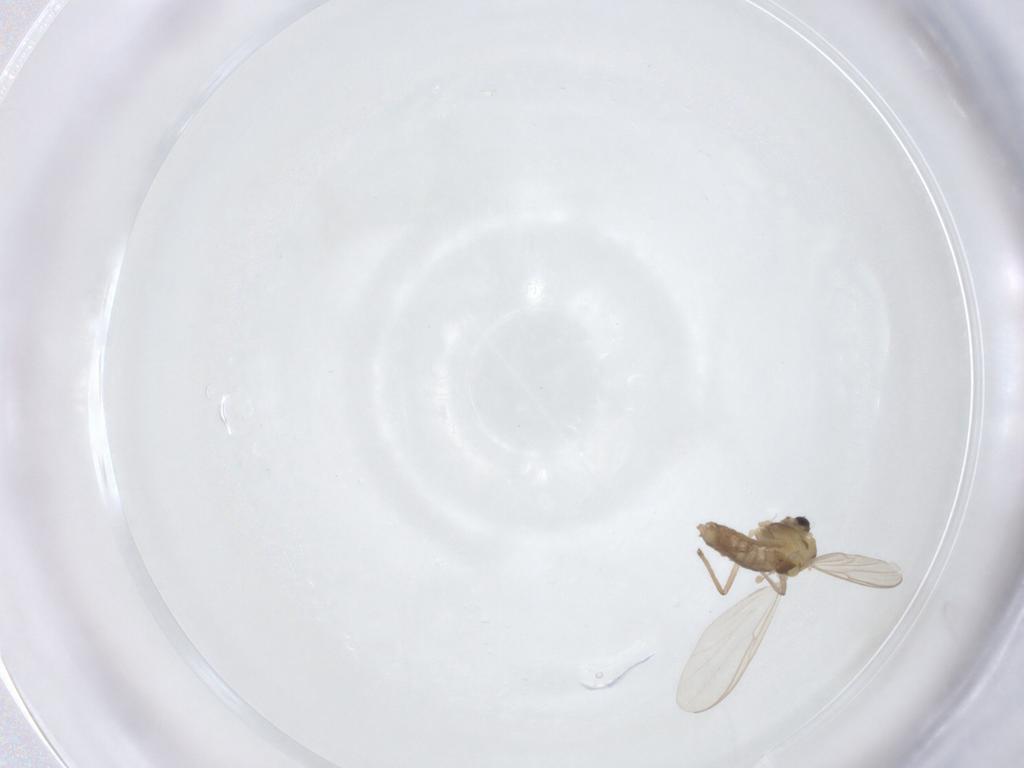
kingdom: Animalia
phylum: Arthropoda
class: Insecta
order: Diptera
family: Chironomidae
